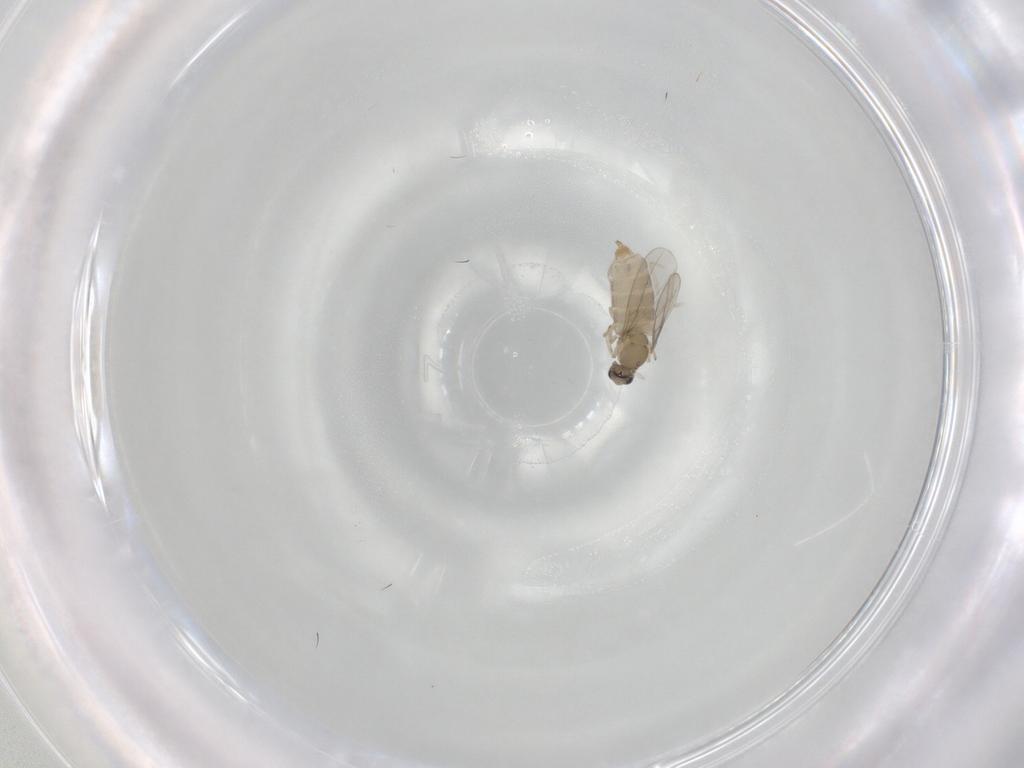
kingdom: Animalia
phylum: Arthropoda
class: Insecta
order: Diptera
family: Cecidomyiidae
